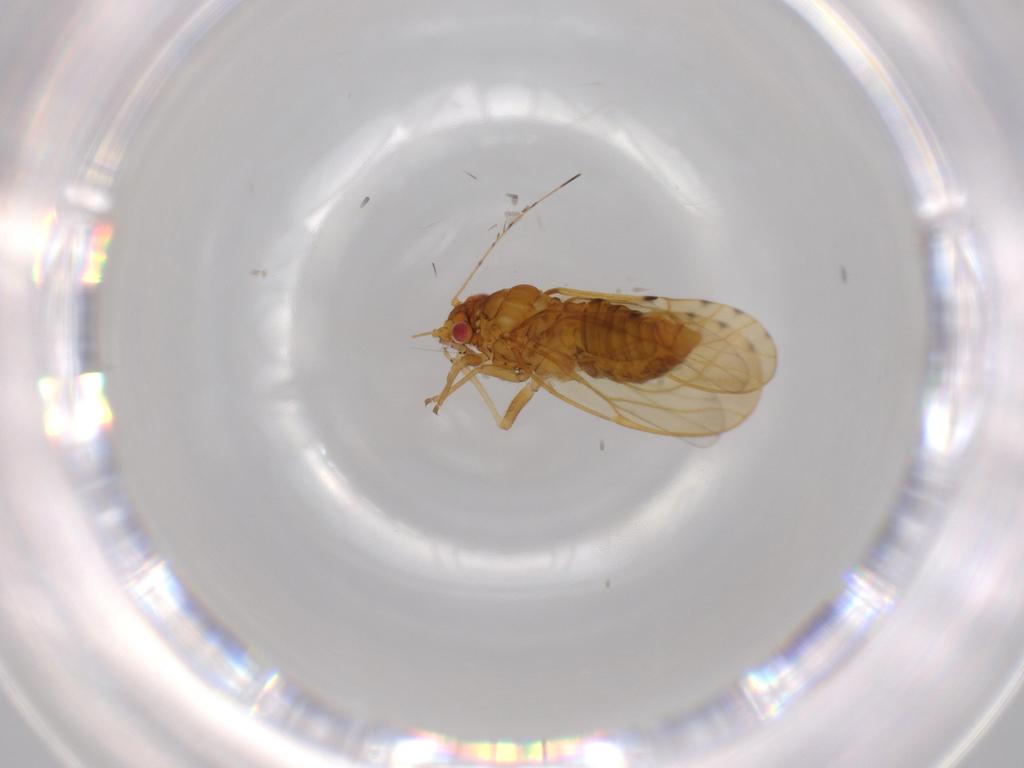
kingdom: Animalia
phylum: Arthropoda
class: Insecta
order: Hemiptera
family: Psylloidea_incertae_sedis
